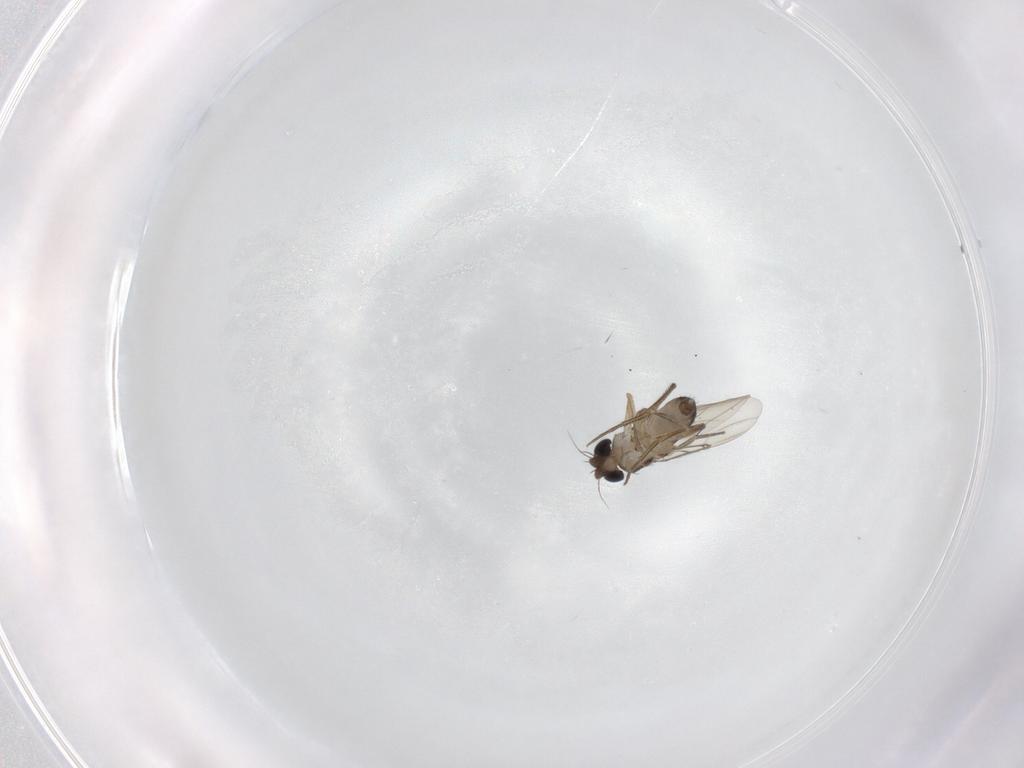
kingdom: Animalia
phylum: Arthropoda
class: Insecta
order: Diptera
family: Phoridae
